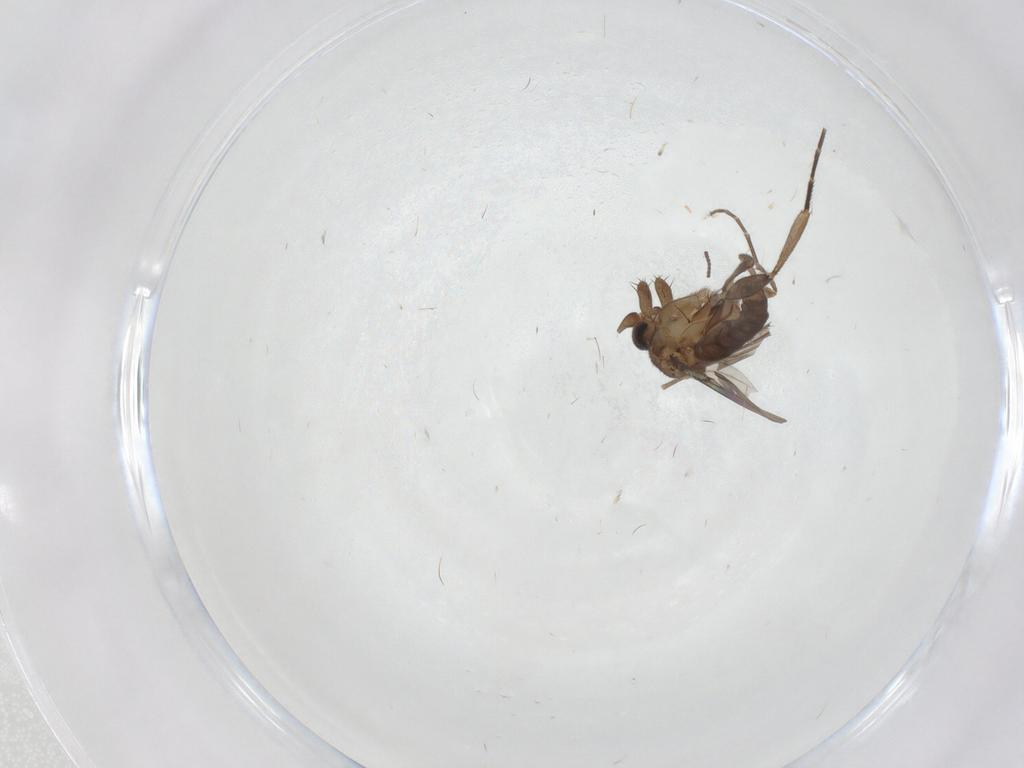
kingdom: Animalia
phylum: Arthropoda
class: Insecta
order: Diptera
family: Phoridae
